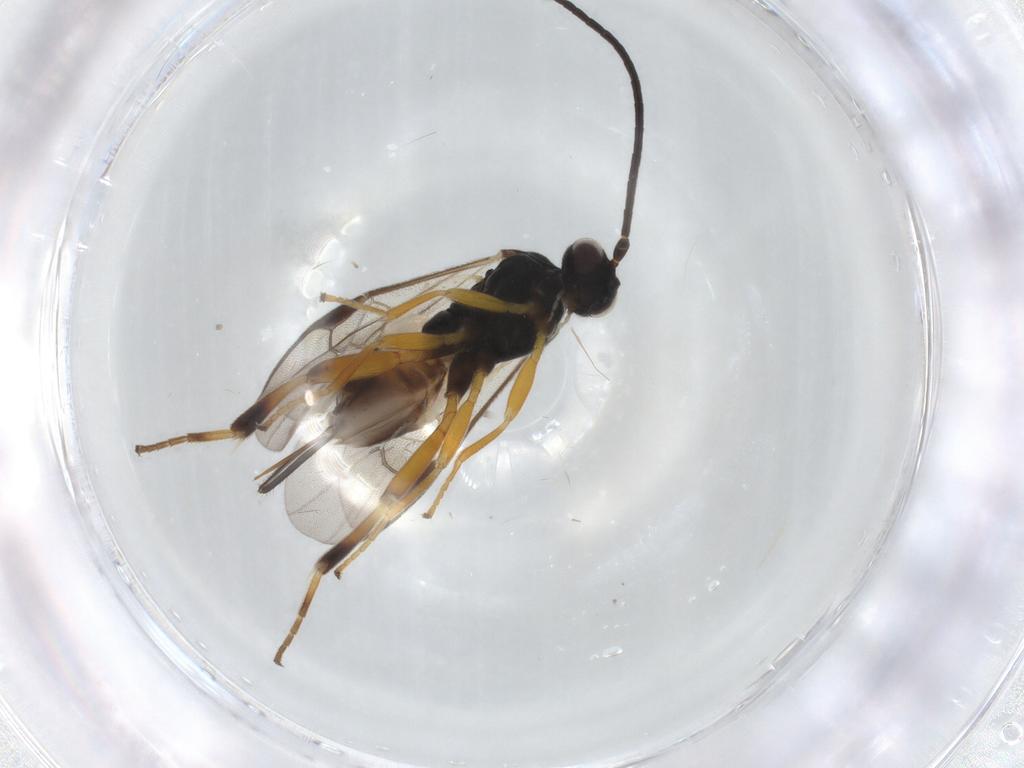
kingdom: Animalia
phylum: Arthropoda
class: Insecta
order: Hymenoptera
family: Braconidae
